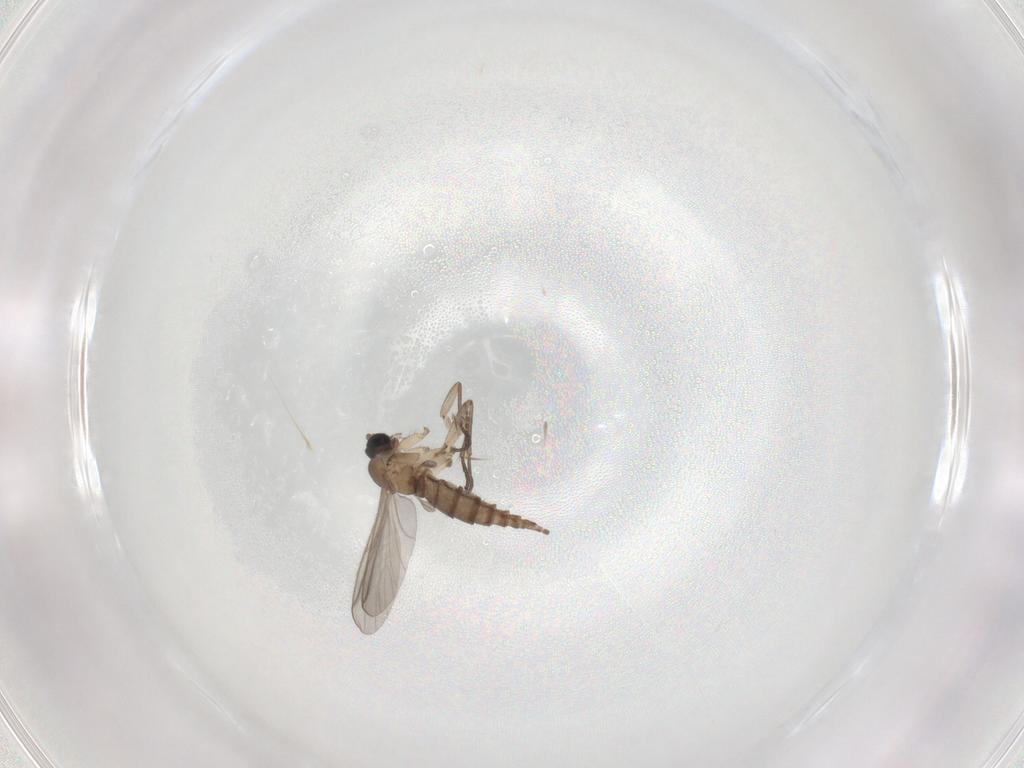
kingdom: Animalia
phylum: Arthropoda
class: Insecta
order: Diptera
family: Sciaridae
